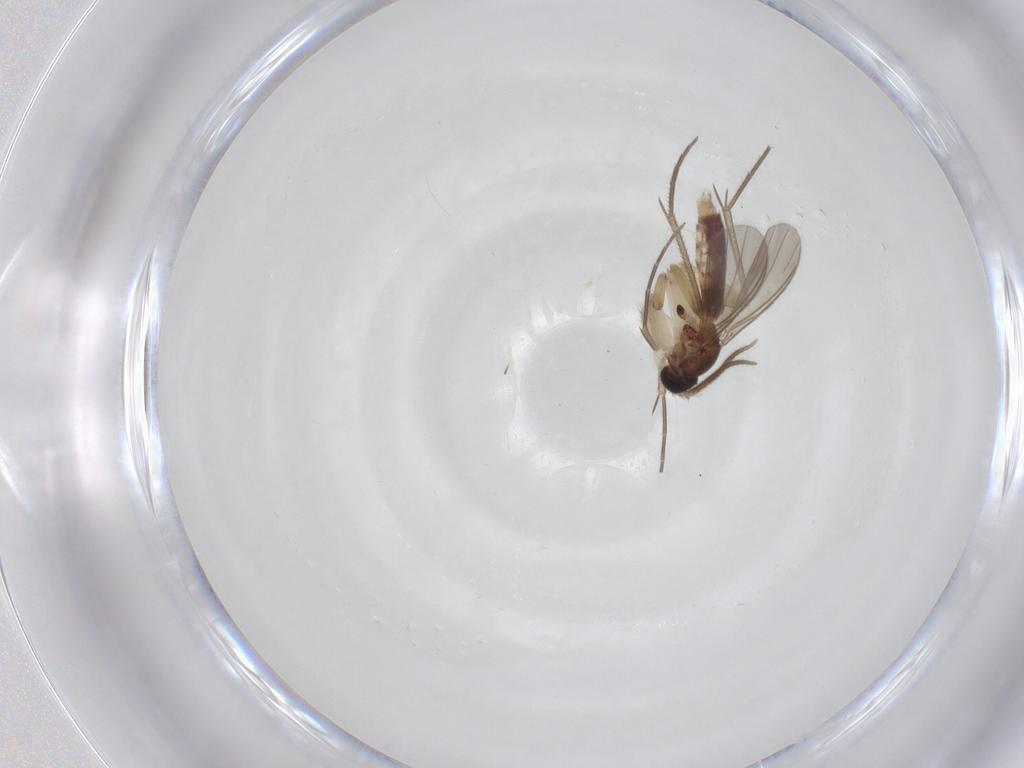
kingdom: Animalia
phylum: Arthropoda
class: Insecta
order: Diptera
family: Mycetophilidae
